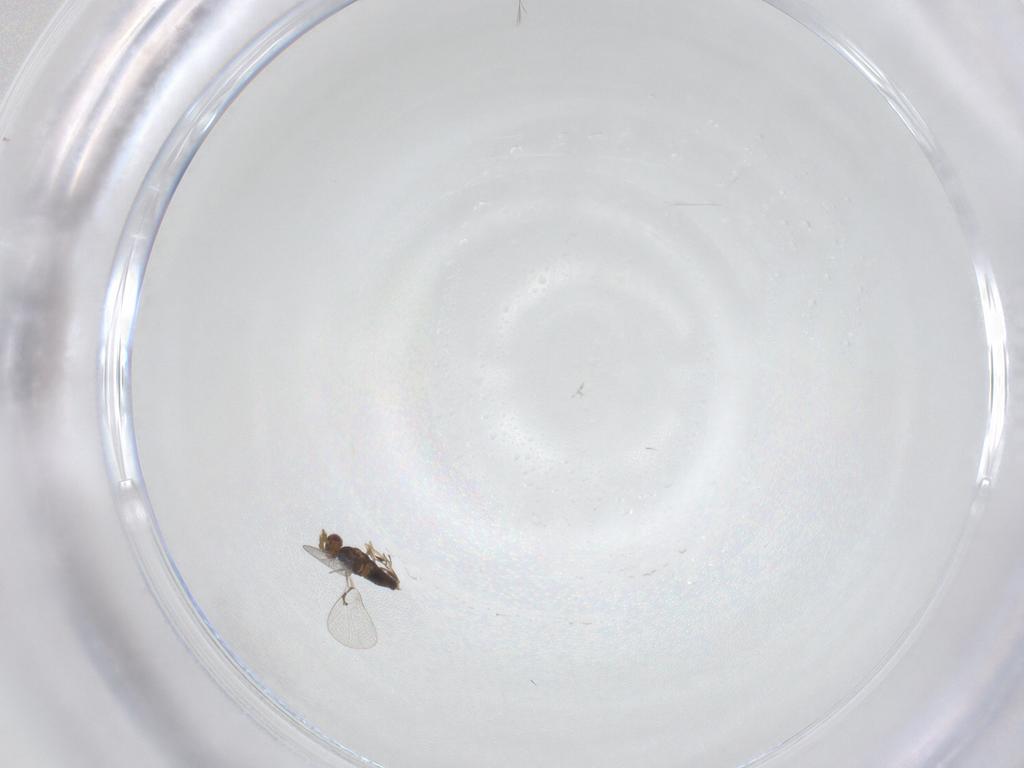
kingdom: Animalia
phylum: Arthropoda
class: Insecta
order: Hymenoptera
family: Trichogrammatidae
